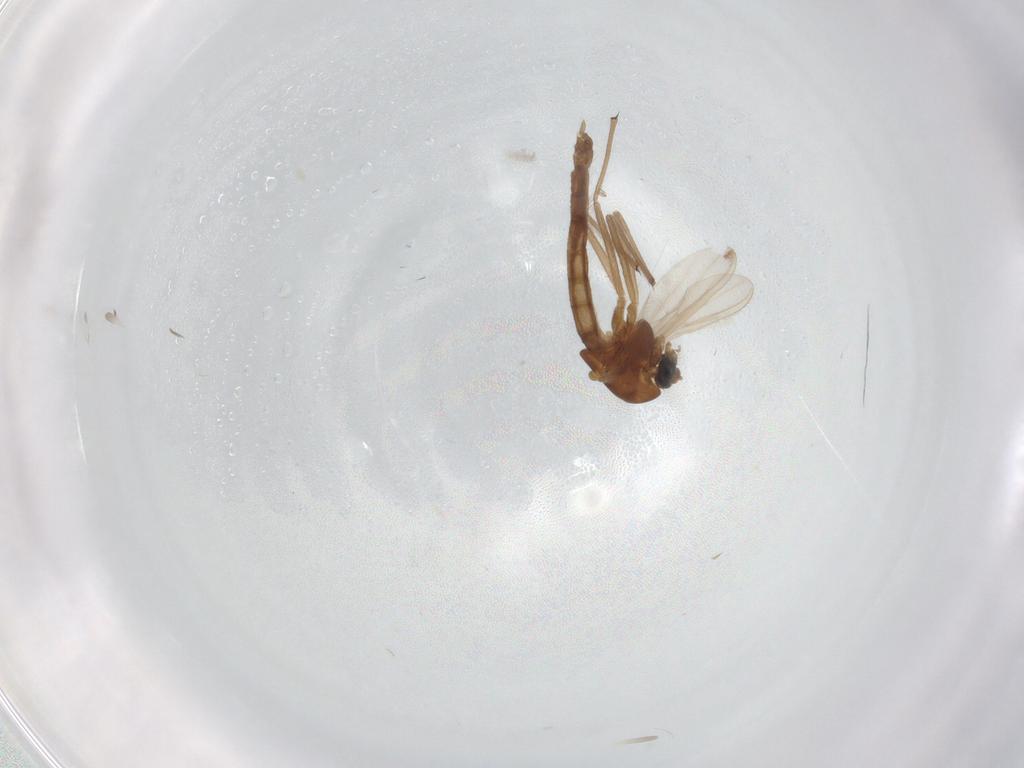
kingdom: Animalia
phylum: Arthropoda
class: Insecta
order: Diptera
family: Chironomidae
